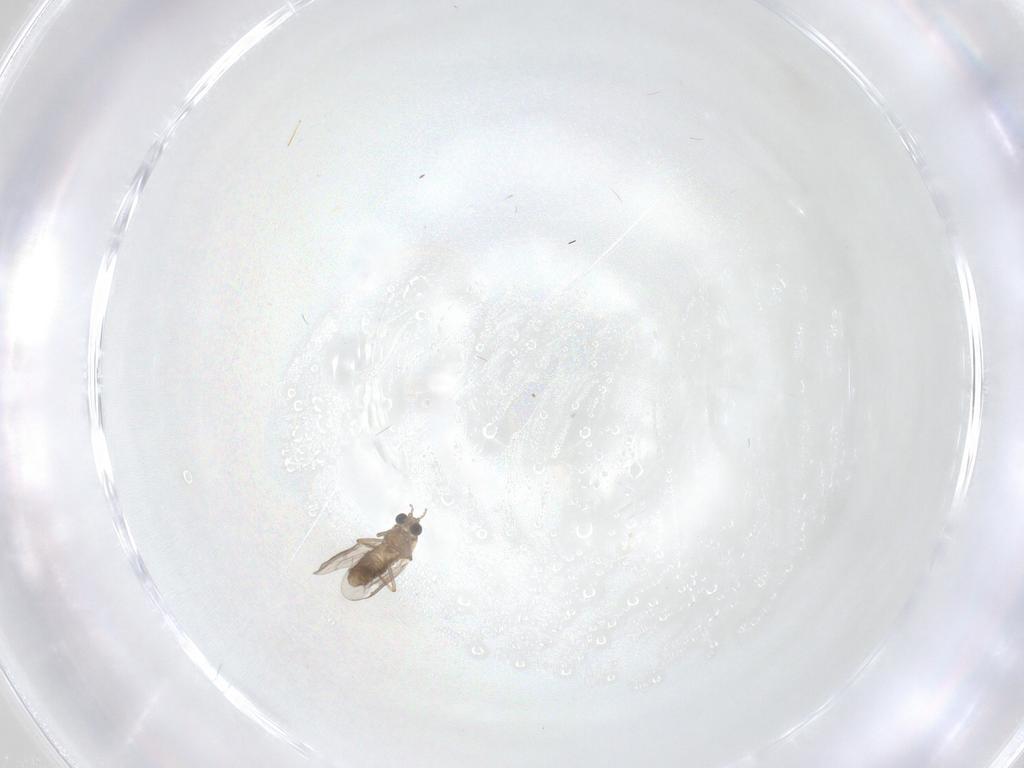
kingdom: Animalia
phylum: Arthropoda
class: Insecta
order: Diptera
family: Chironomidae
